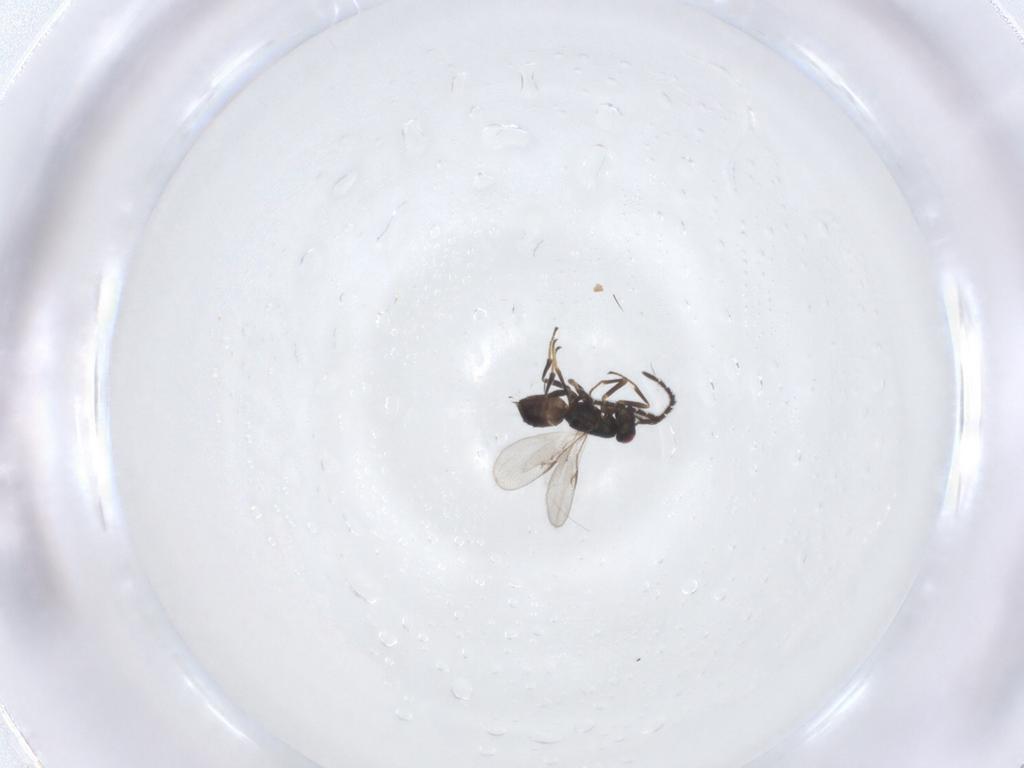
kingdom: Animalia
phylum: Arthropoda
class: Insecta
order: Hymenoptera
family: Encyrtidae
